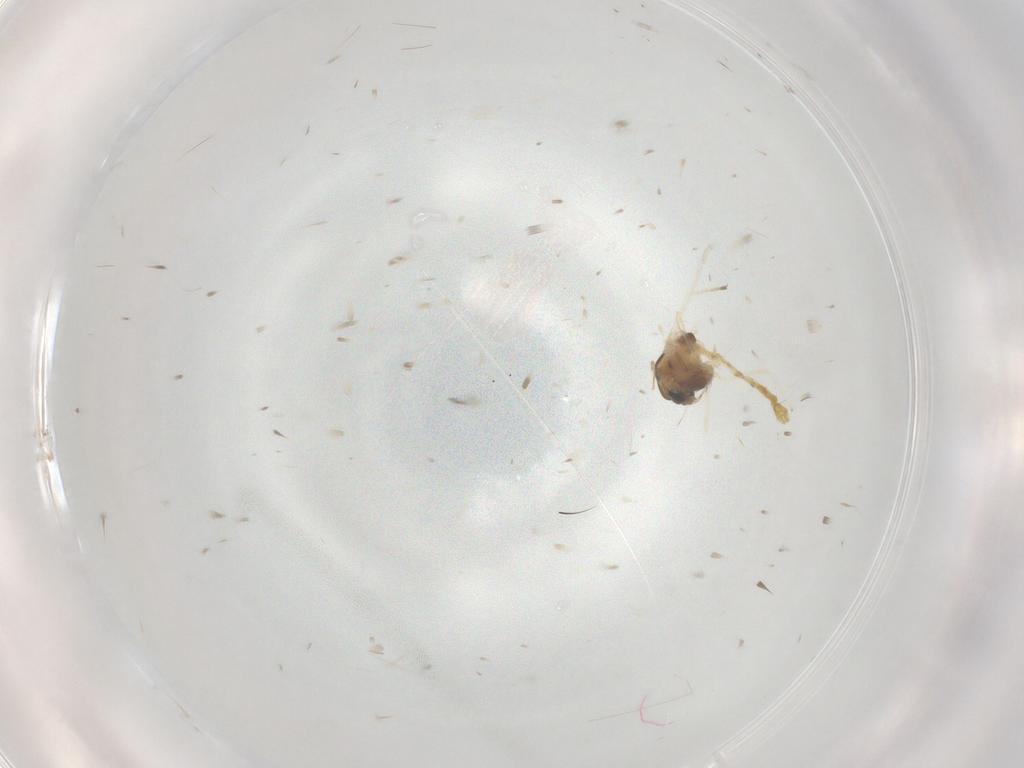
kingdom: Animalia
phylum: Arthropoda
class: Insecta
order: Diptera
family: Chironomidae
